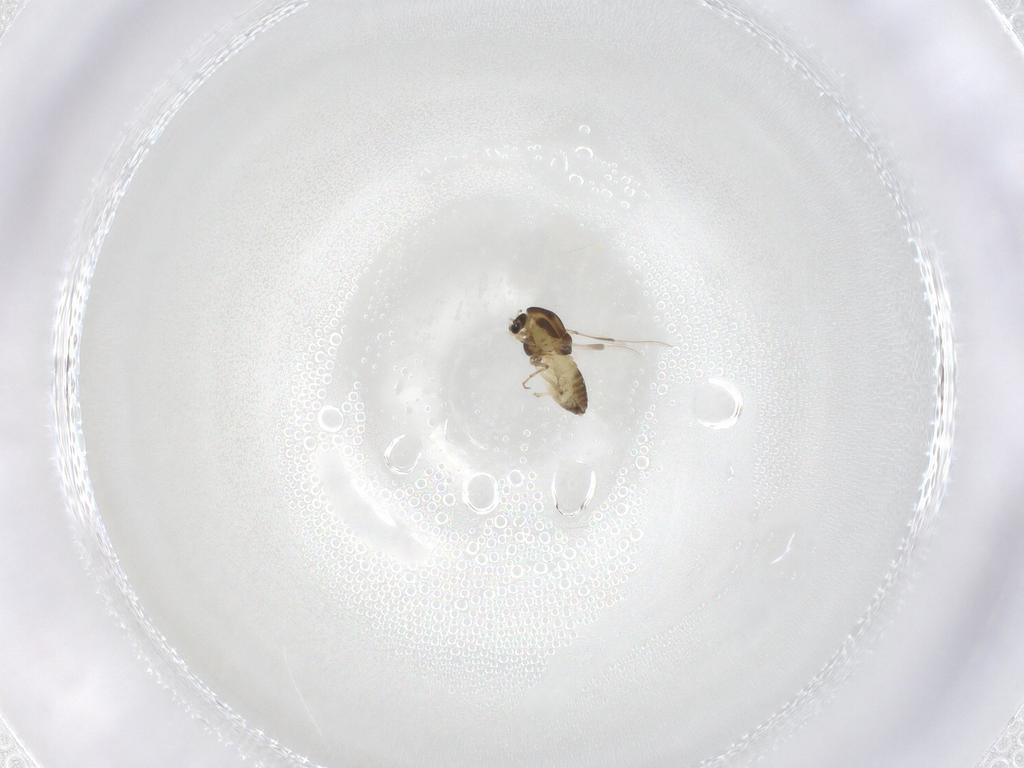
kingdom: Animalia
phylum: Arthropoda
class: Insecta
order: Diptera
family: Chironomidae
